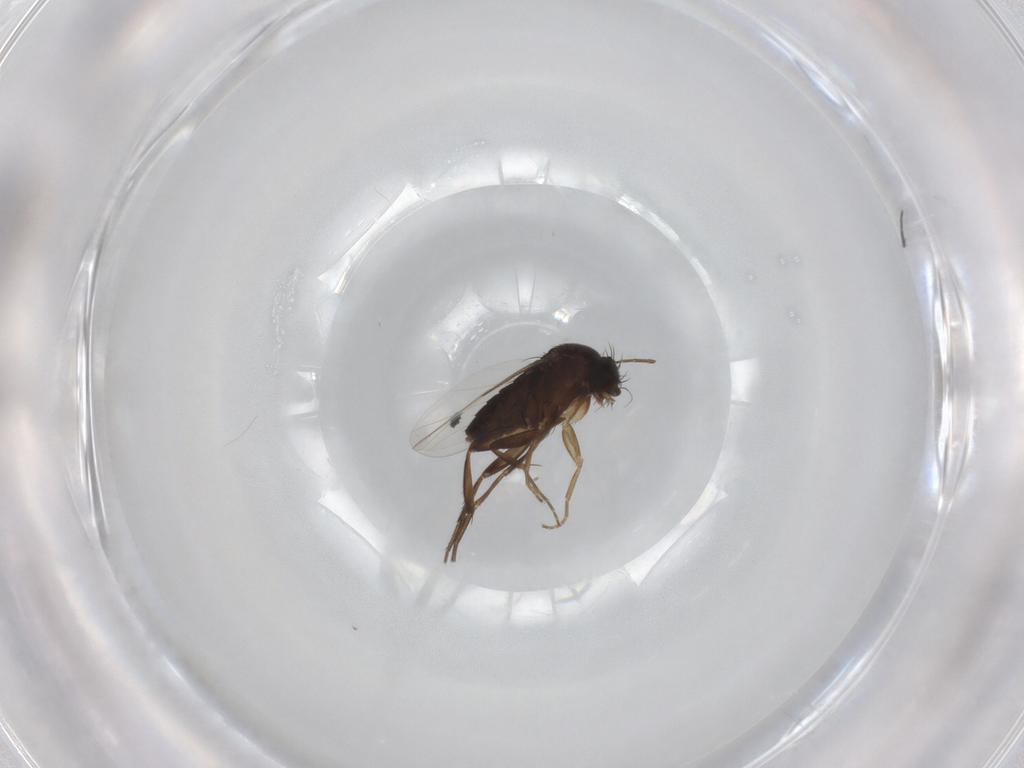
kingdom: Animalia
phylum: Arthropoda
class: Insecta
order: Diptera
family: Phoridae
